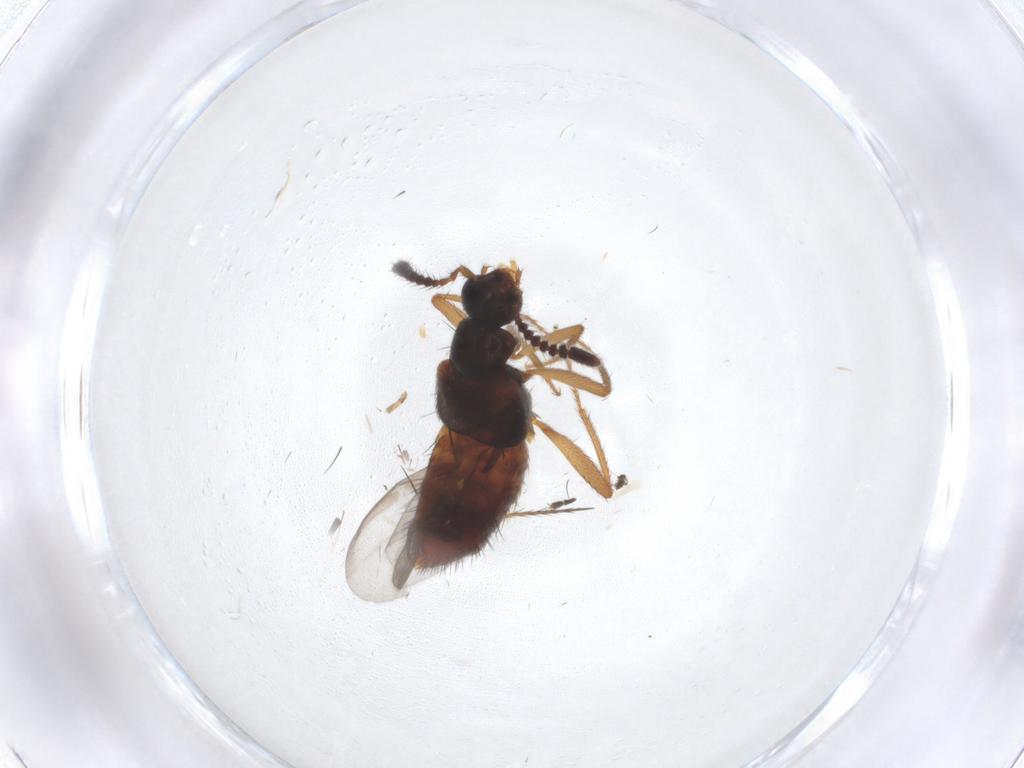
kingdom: Animalia
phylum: Arthropoda
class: Insecta
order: Coleoptera
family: Staphylinidae
